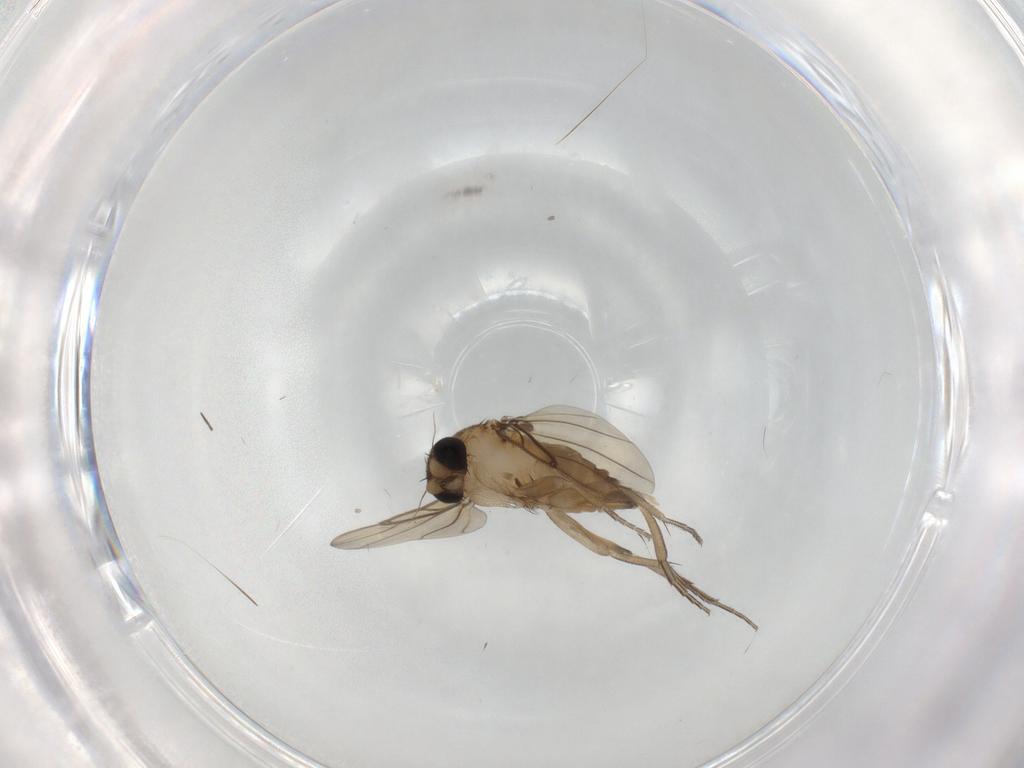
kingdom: Animalia
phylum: Arthropoda
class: Insecta
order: Diptera
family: Phoridae
